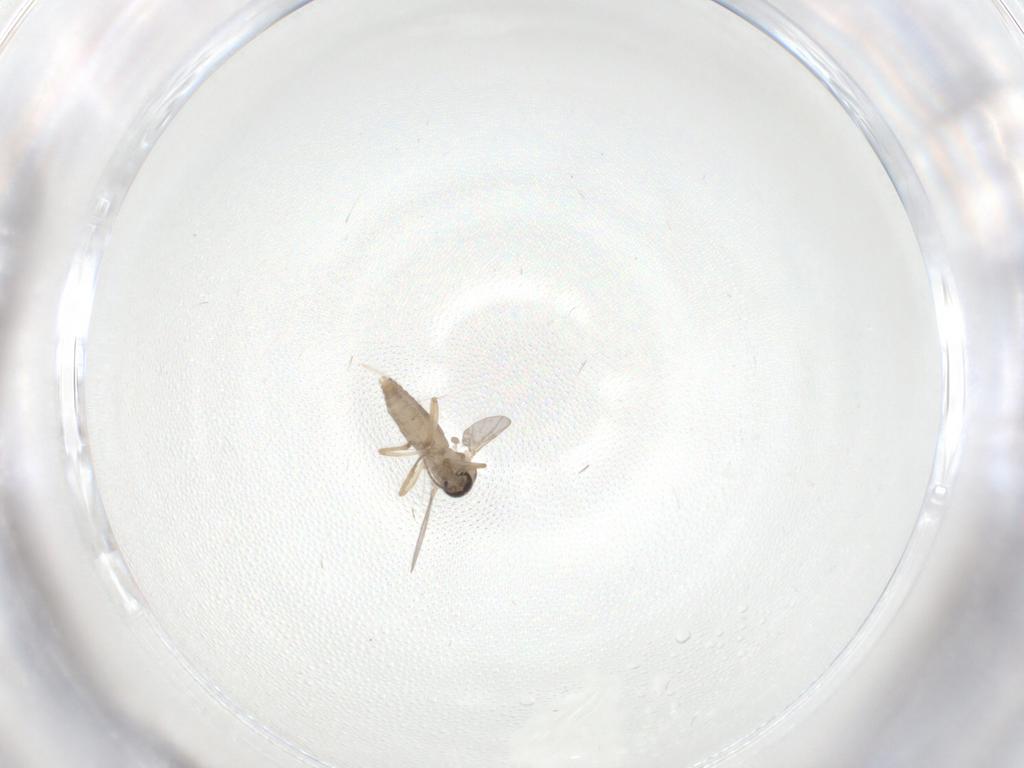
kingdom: Animalia
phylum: Arthropoda
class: Insecta
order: Diptera
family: Ceratopogonidae
